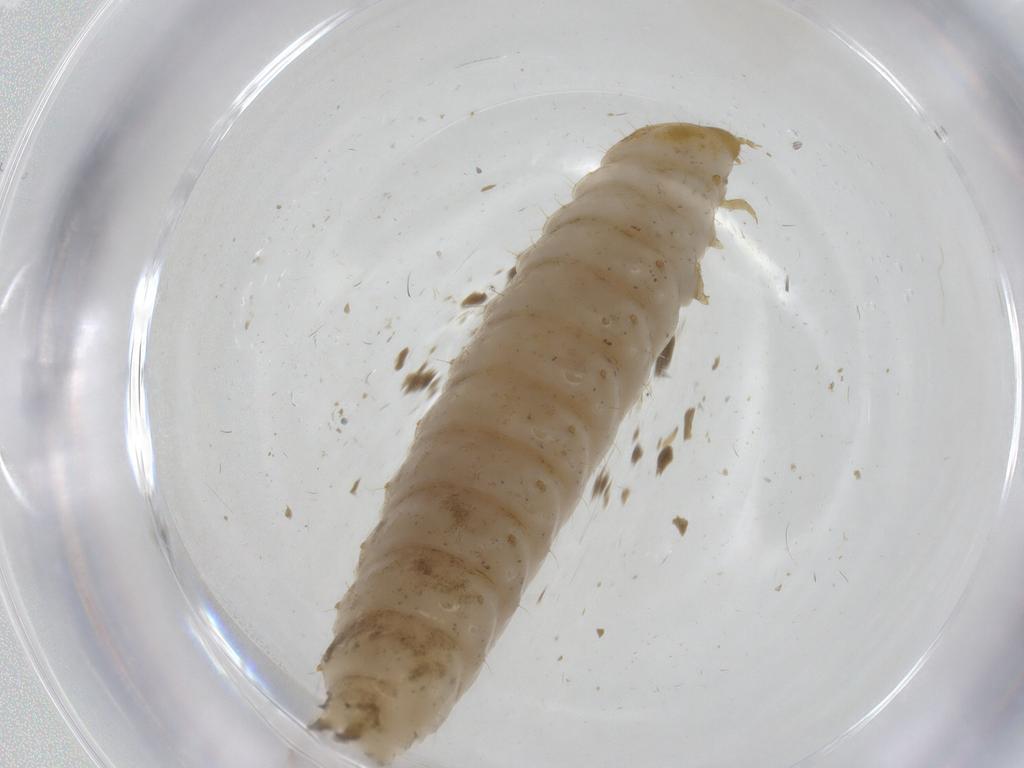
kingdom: Animalia
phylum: Arthropoda
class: Insecta
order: Coleoptera
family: Nitidulidae
